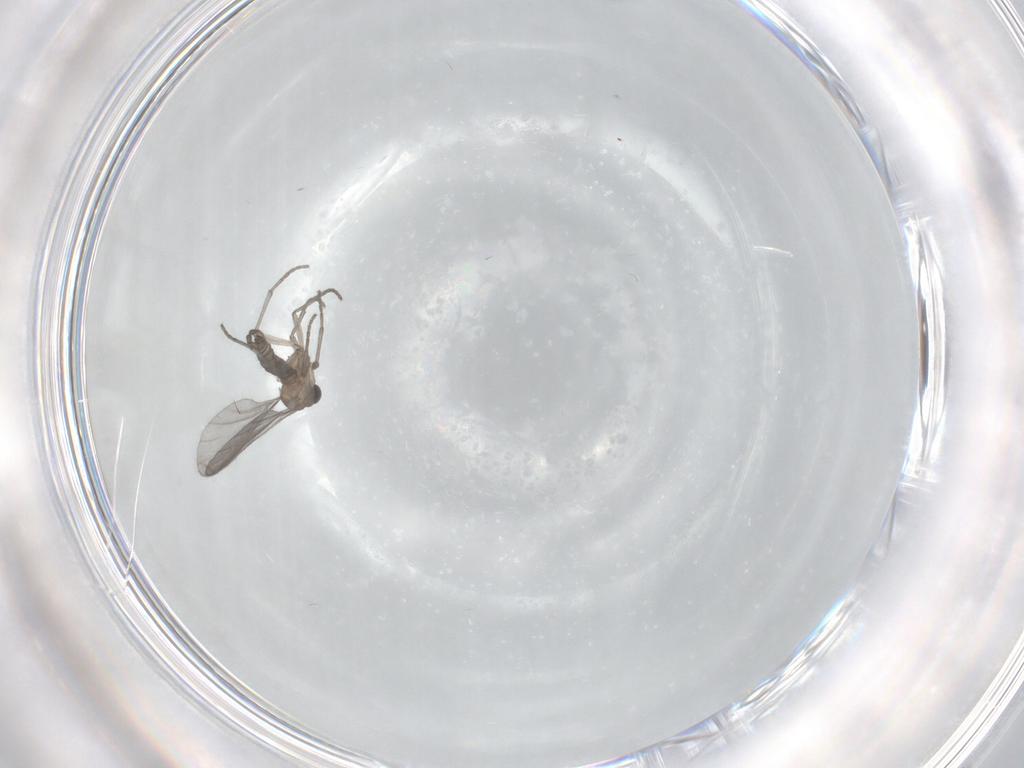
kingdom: Animalia
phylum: Arthropoda
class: Insecta
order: Diptera
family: Sciaridae
